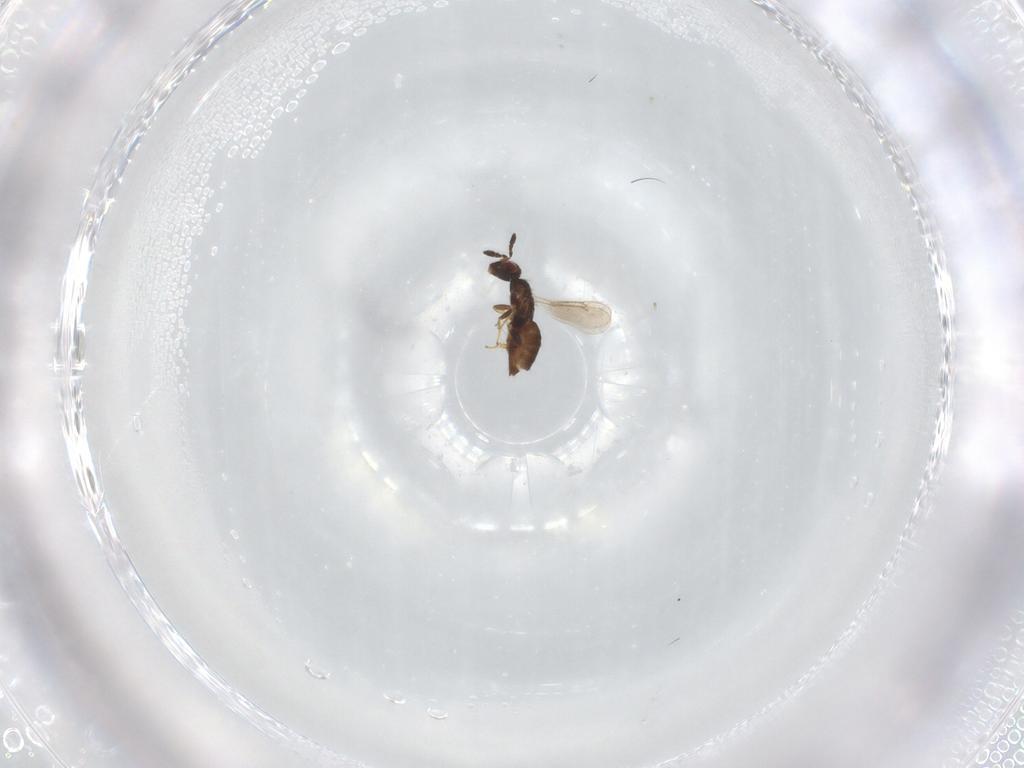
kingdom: Animalia
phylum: Arthropoda
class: Insecta
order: Hymenoptera
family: Aphelinidae
